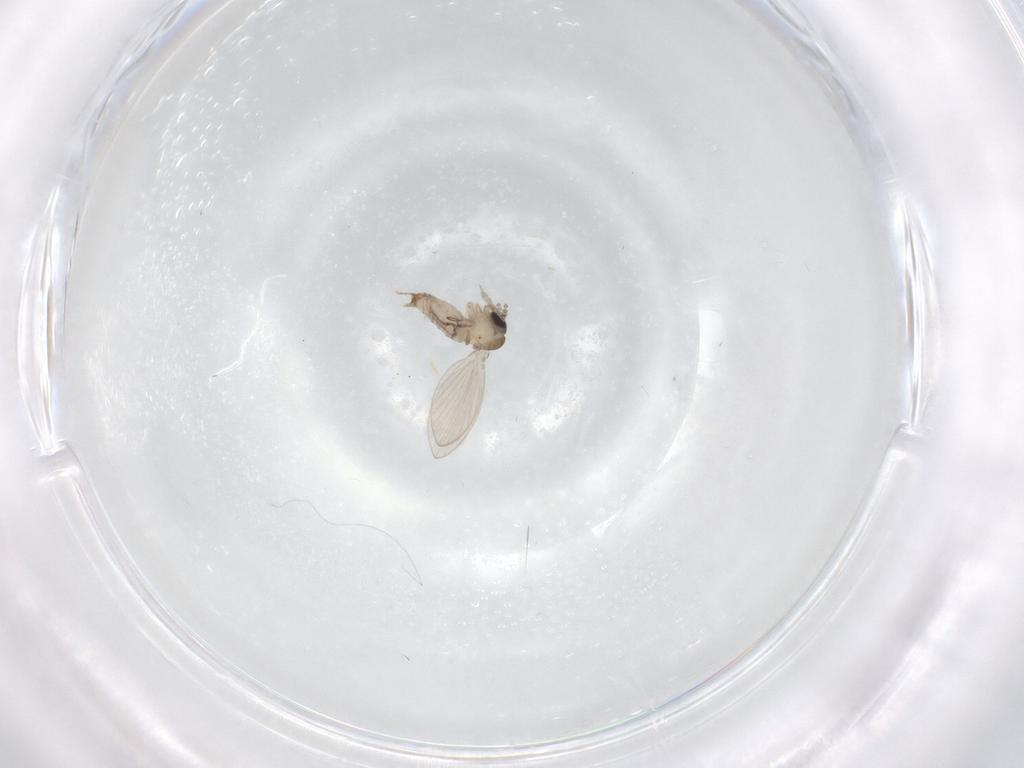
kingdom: Animalia
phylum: Arthropoda
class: Insecta
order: Diptera
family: Chironomidae
